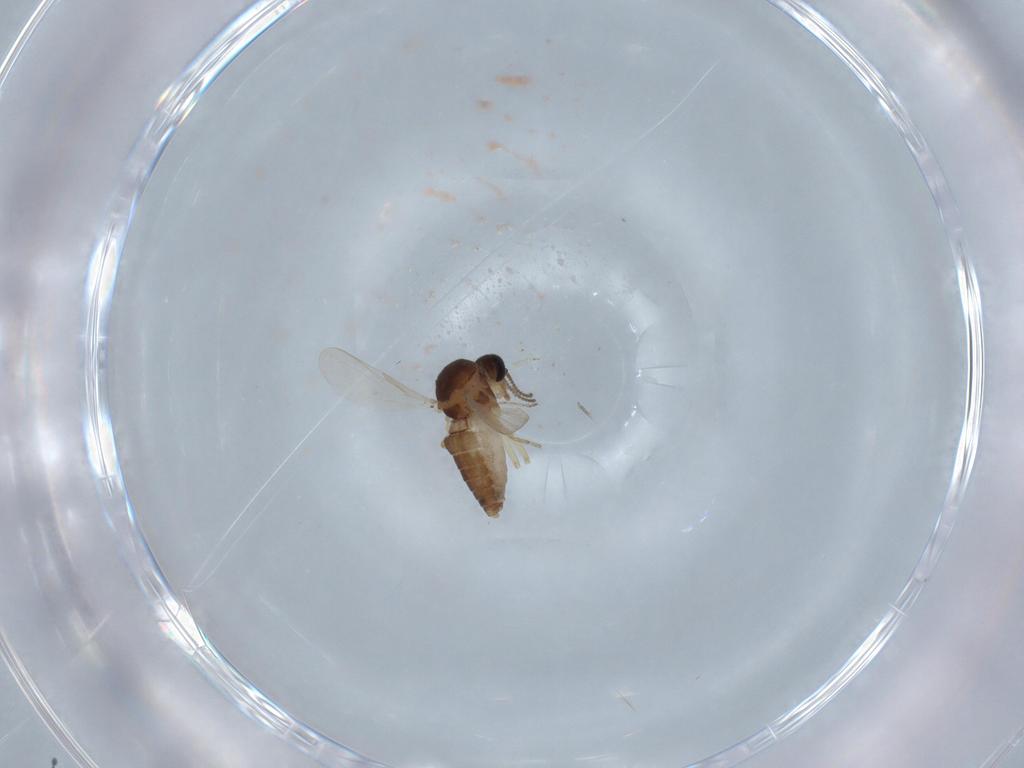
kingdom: Animalia
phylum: Arthropoda
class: Insecta
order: Diptera
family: Ceratopogonidae
